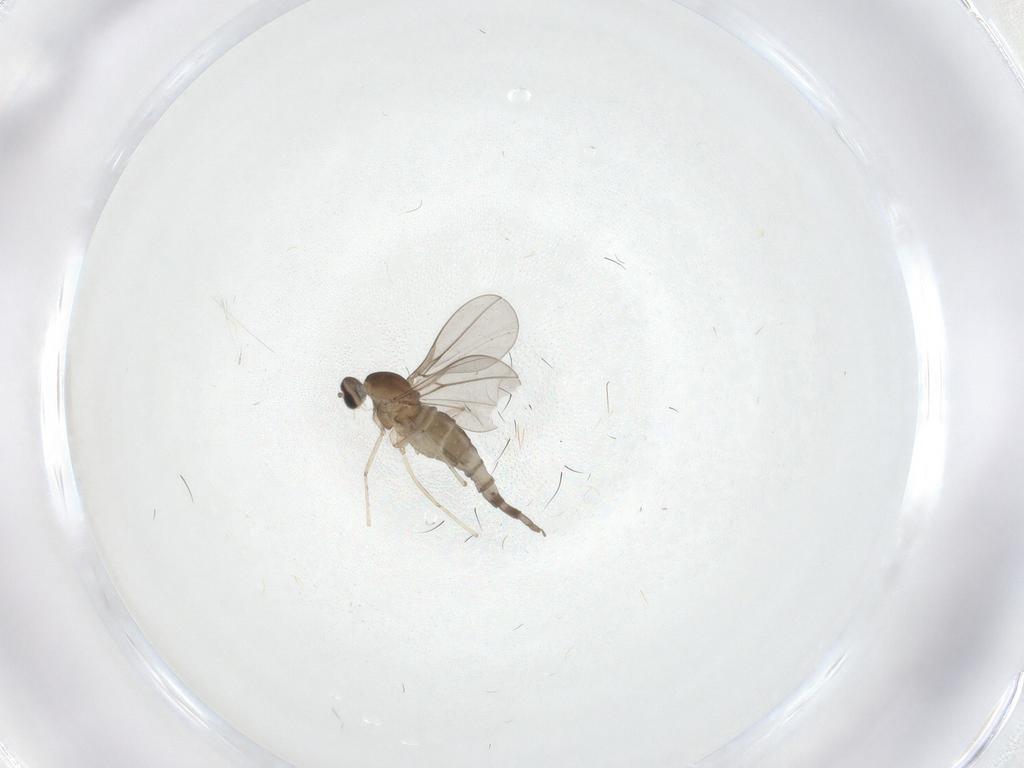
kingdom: Animalia
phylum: Arthropoda
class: Insecta
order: Diptera
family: Cecidomyiidae
